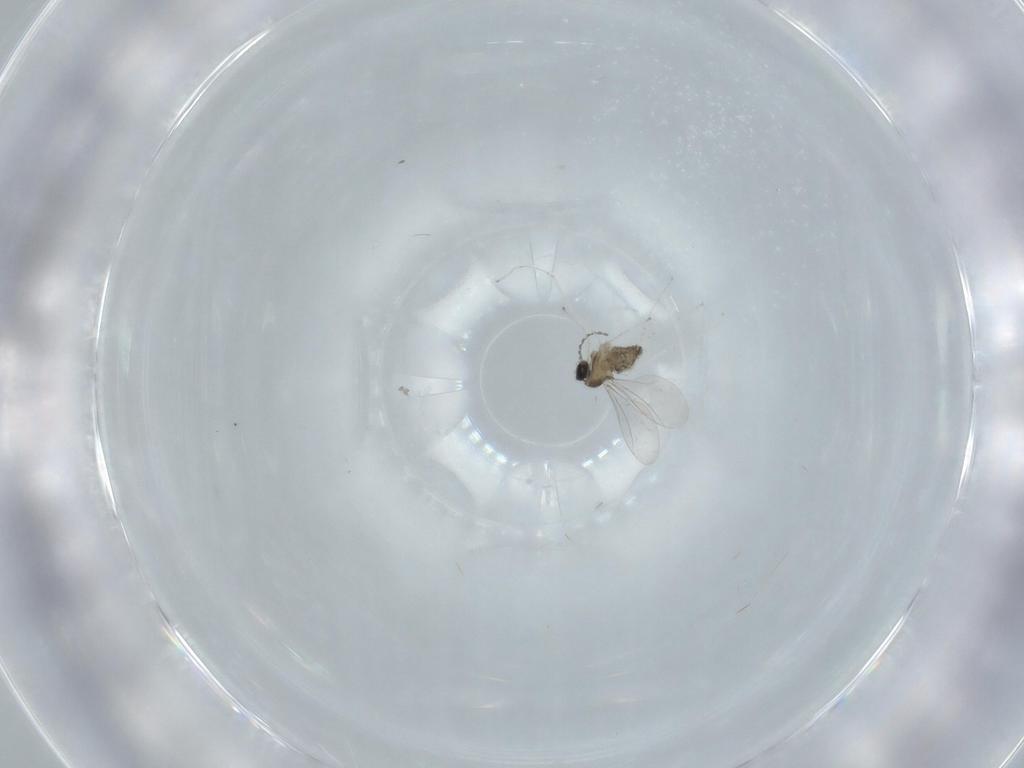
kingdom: Animalia
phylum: Arthropoda
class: Insecta
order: Diptera
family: Cecidomyiidae
